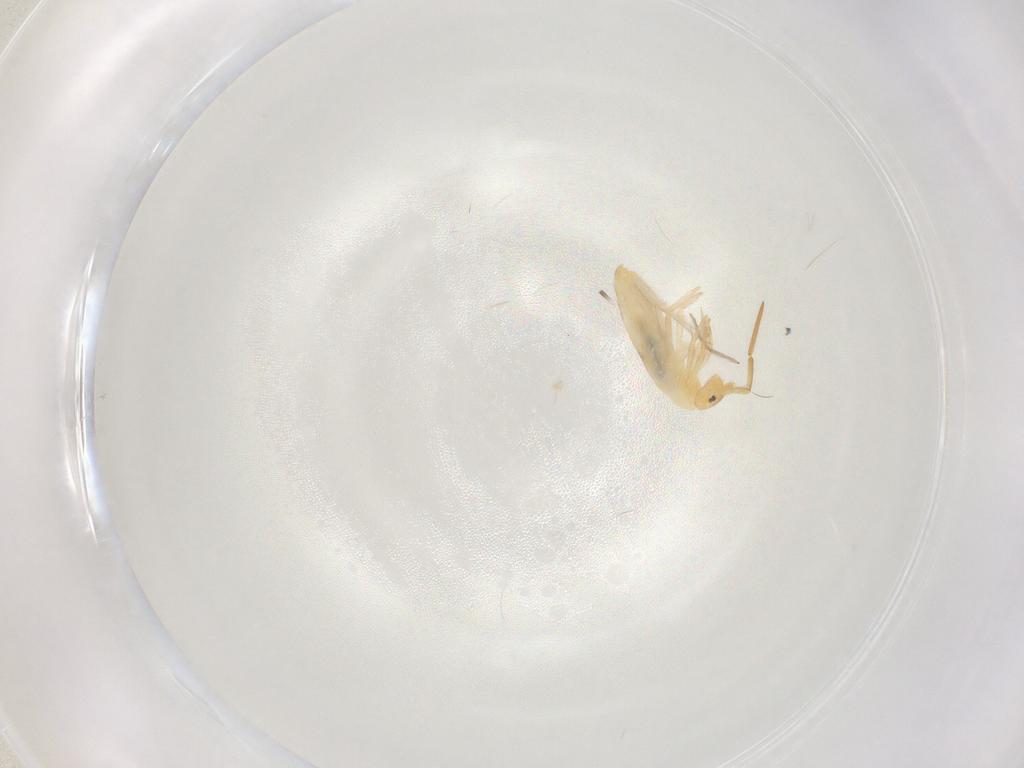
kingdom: Animalia
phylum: Arthropoda
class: Collembola
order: Entomobryomorpha
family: Entomobryidae
